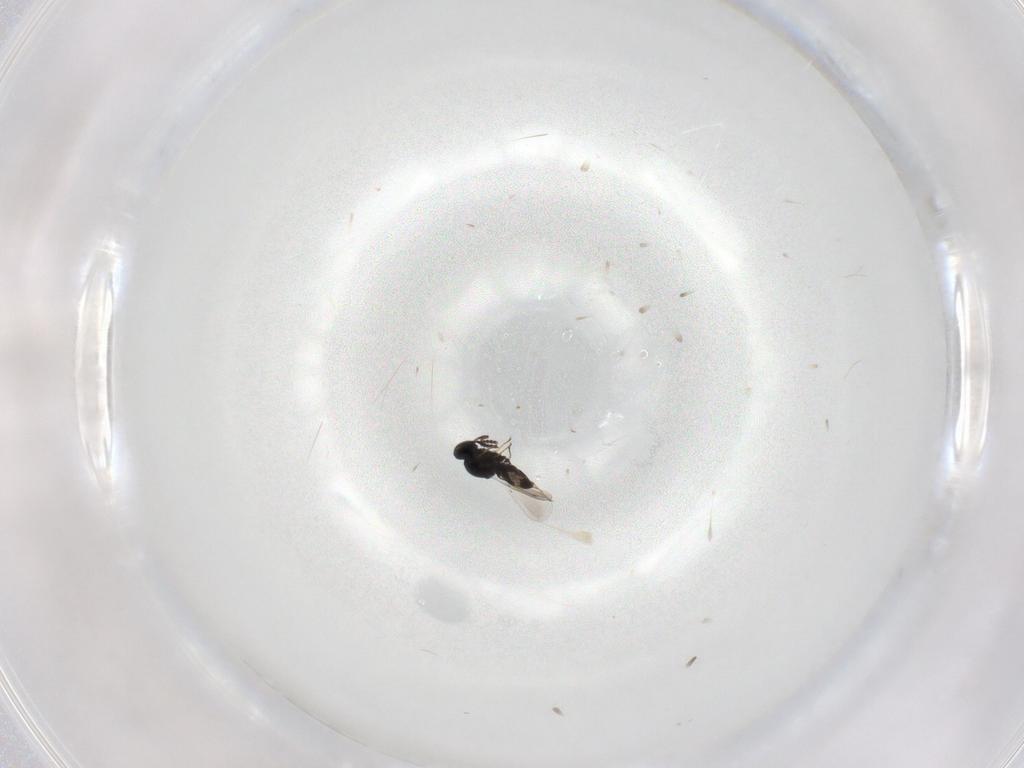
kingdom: Animalia
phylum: Arthropoda
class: Insecta
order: Hymenoptera
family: Platygastridae
